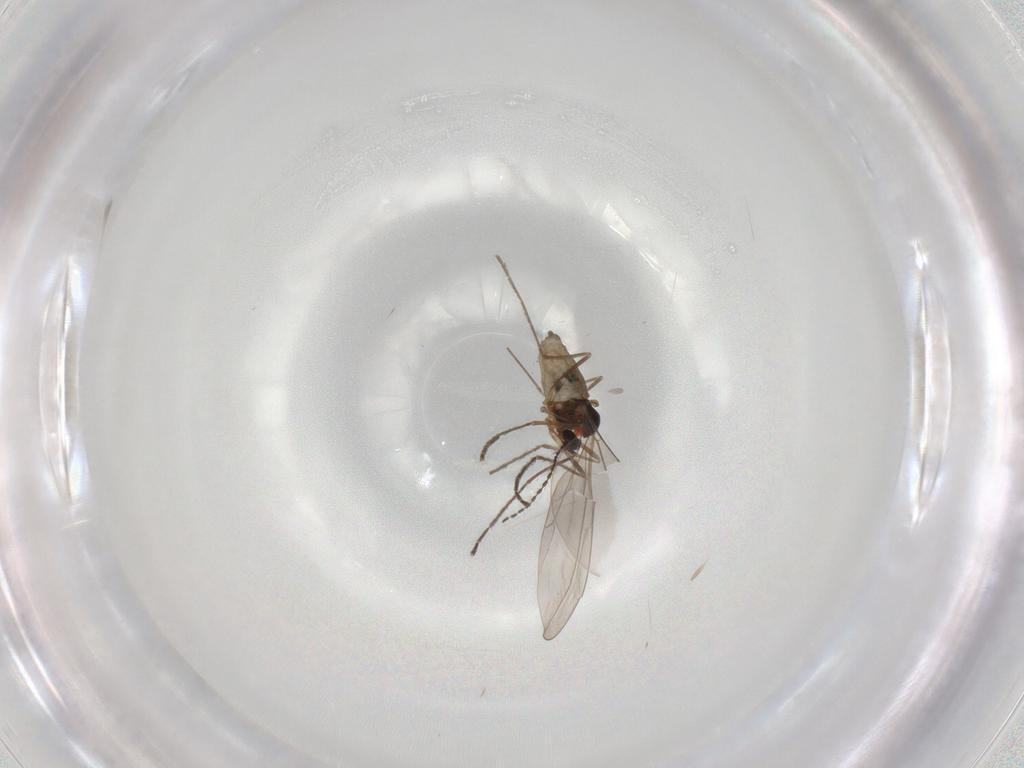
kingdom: Animalia
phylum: Arthropoda
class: Insecta
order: Diptera
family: Cecidomyiidae
